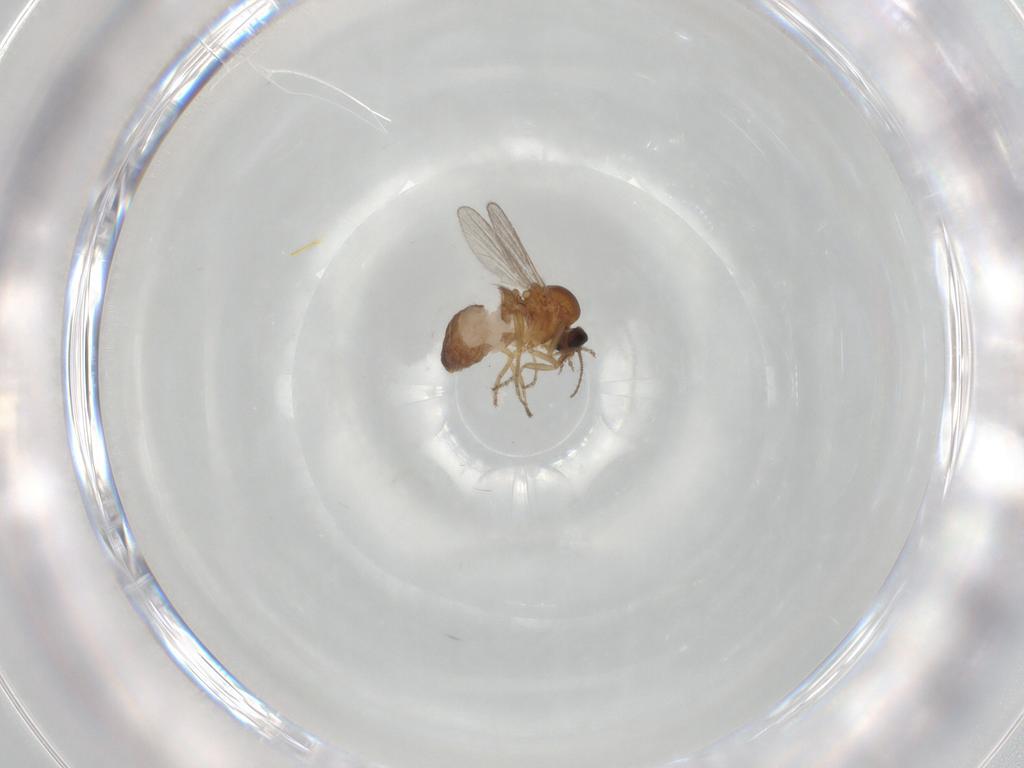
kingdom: Animalia
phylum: Arthropoda
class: Insecta
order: Diptera
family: Ceratopogonidae
